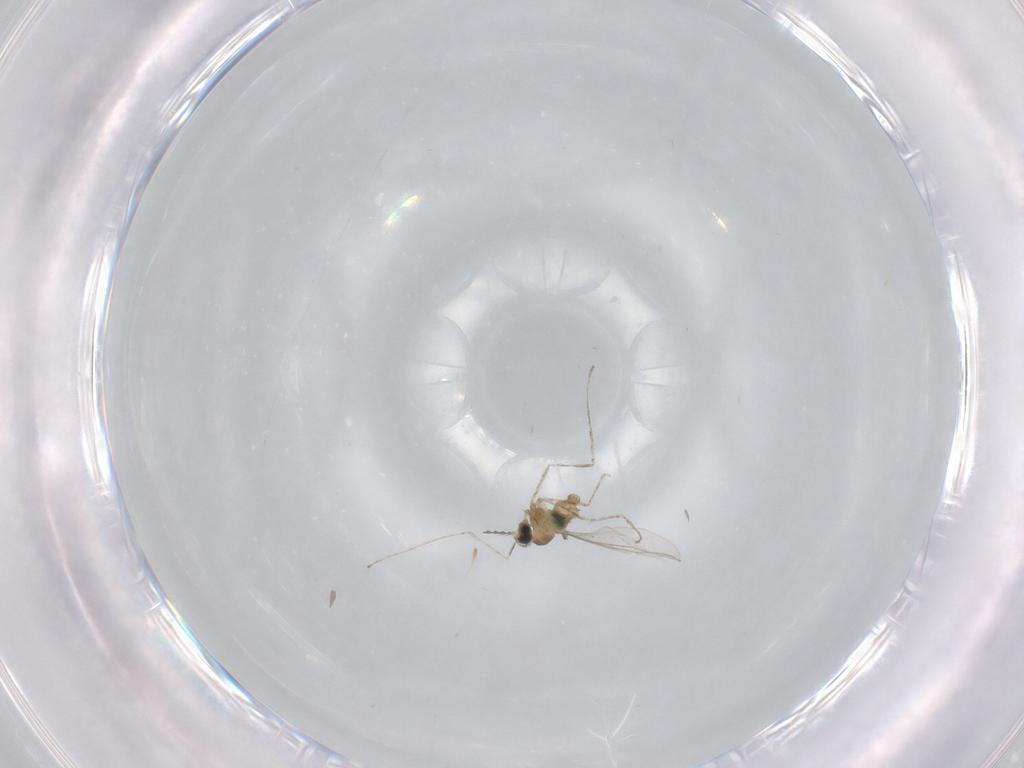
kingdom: Animalia
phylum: Arthropoda
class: Insecta
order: Diptera
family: Cecidomyiidae
